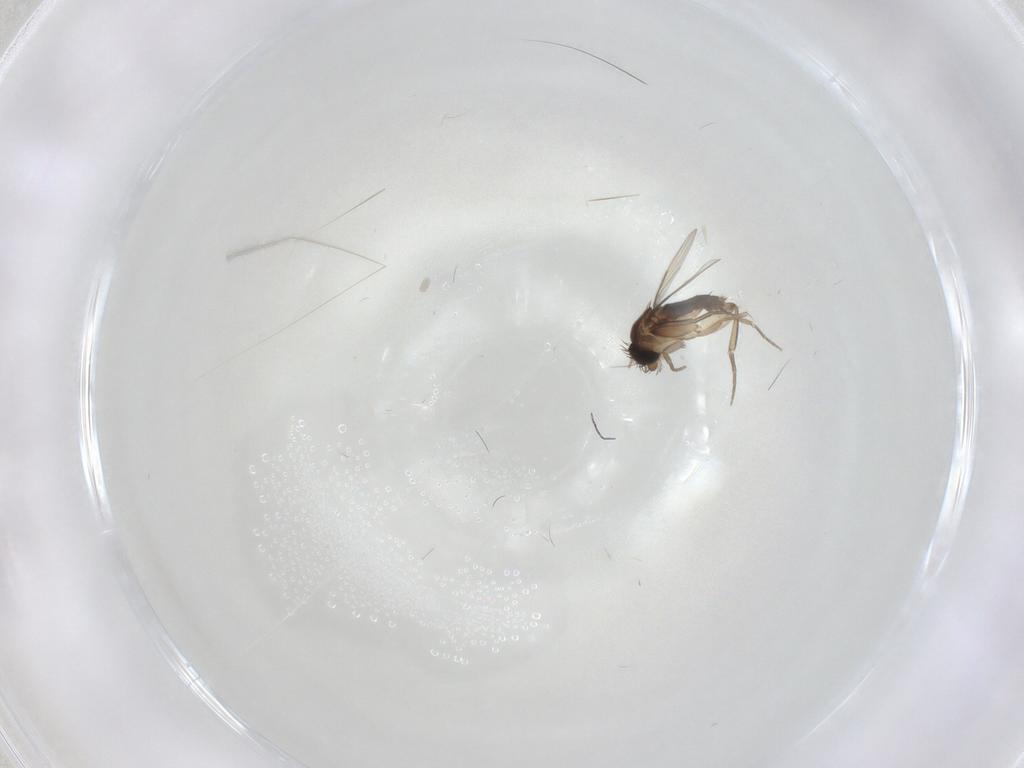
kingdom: Animalia
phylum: Arthropoda
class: Insecta
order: Diptera
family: Phoridae
